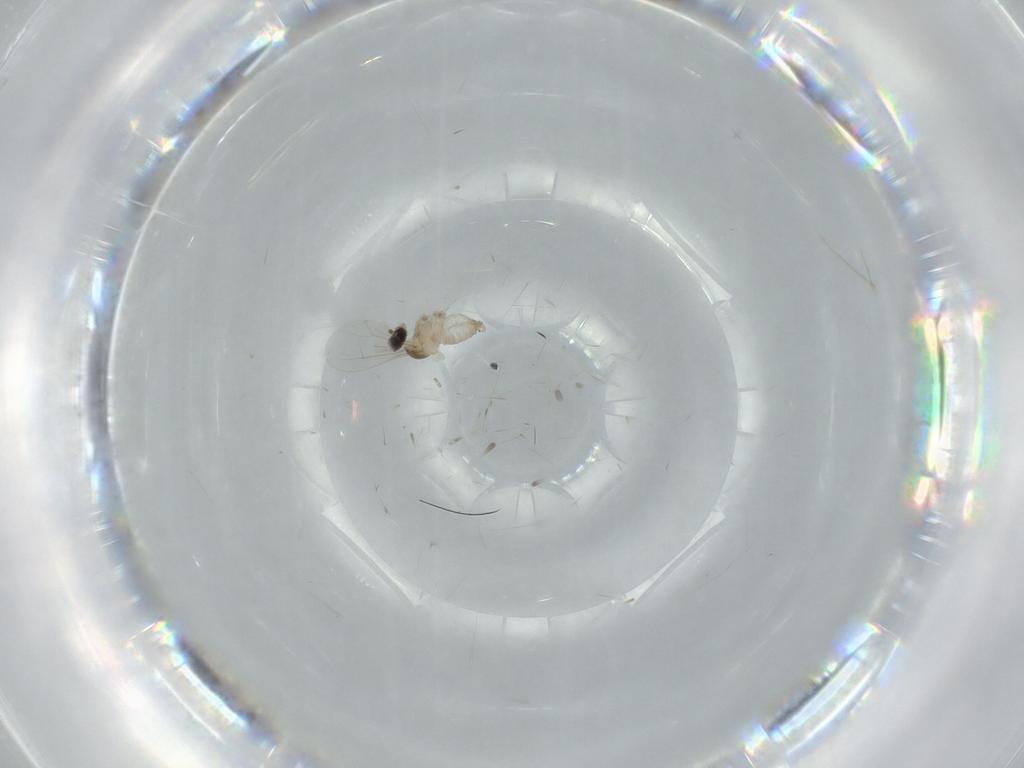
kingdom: Animalia
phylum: Arthropoda
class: Insecta
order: Diptera
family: Cecidomyiidae
